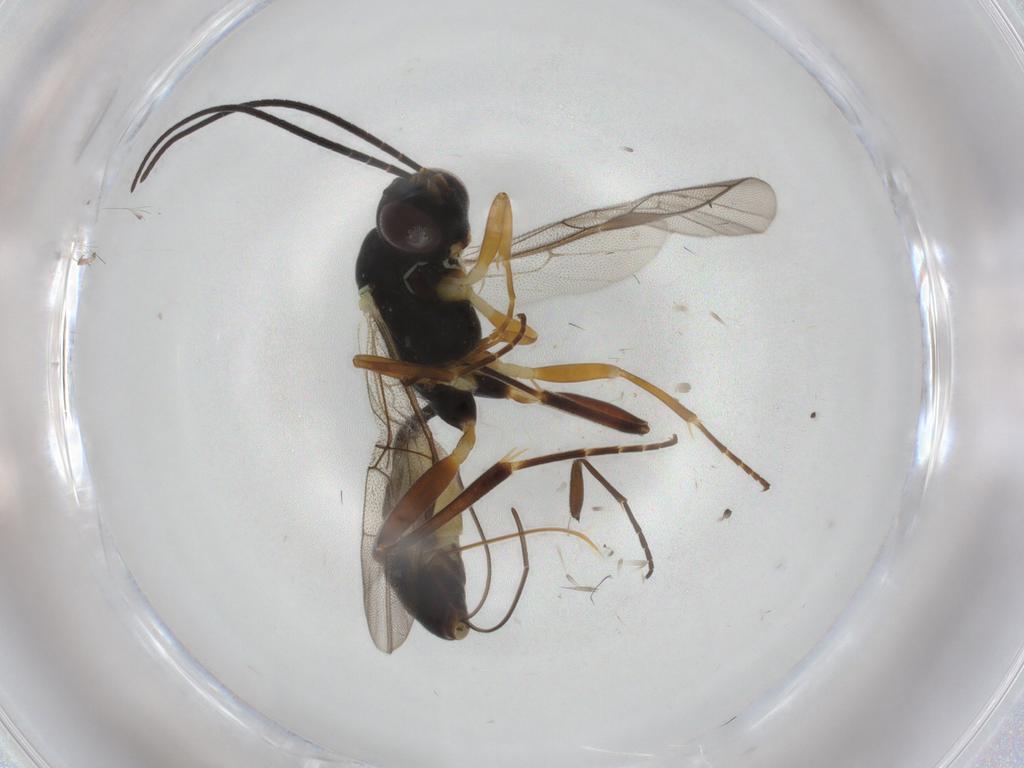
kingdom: Animalia
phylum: Arthropoda
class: Insecta
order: Hymenoptera
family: Ichneumonidae
